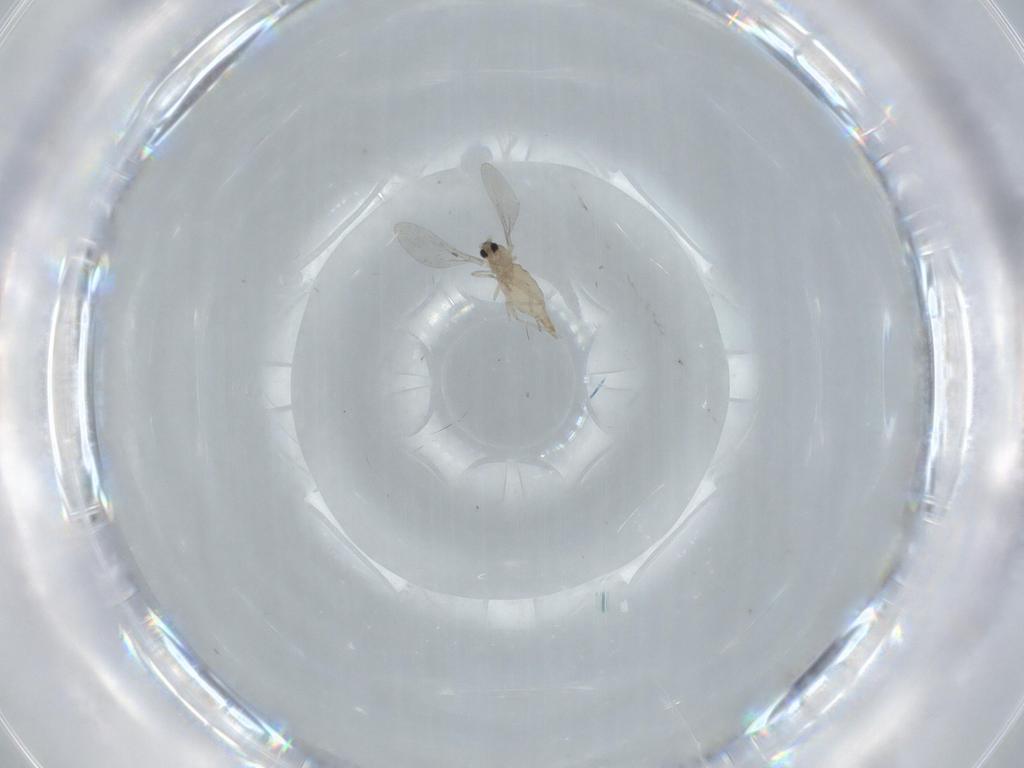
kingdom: Animalia
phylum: Arthropoda
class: Insecta
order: Diptera
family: Cecidomyiidae
